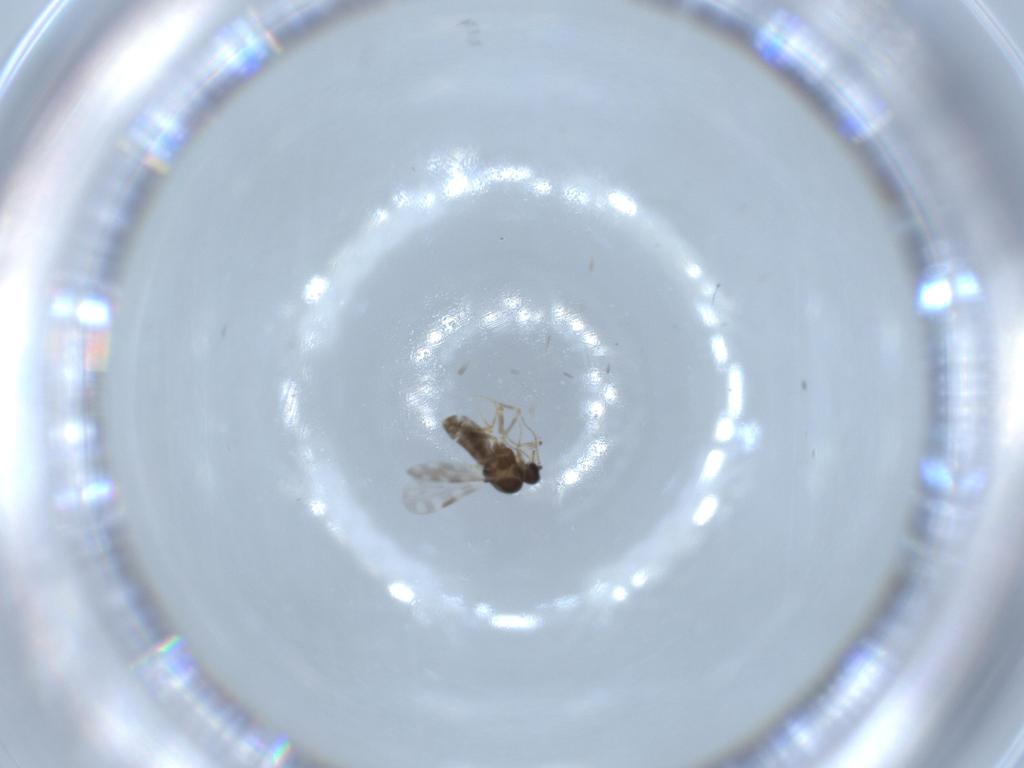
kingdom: Animalia
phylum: Arthropoda
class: Insecta
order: Diptera
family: Ceratopogonidae
